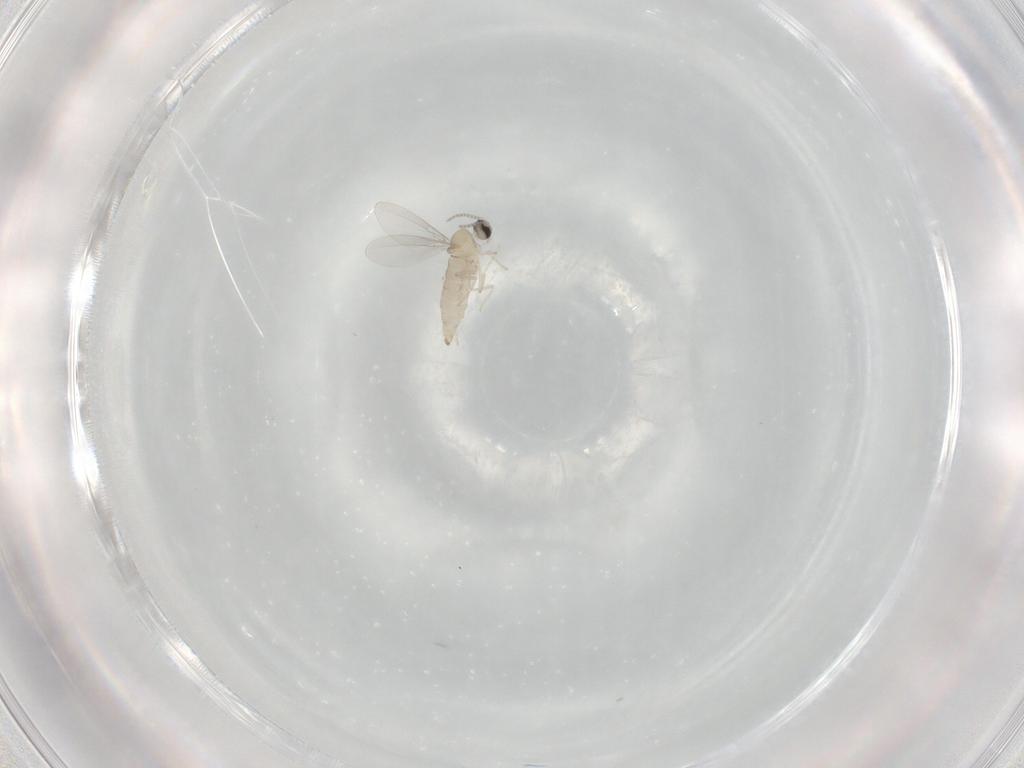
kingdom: Animalia
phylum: Arthropoda
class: Insecta
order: Diptera
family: Cecidomyiidae
